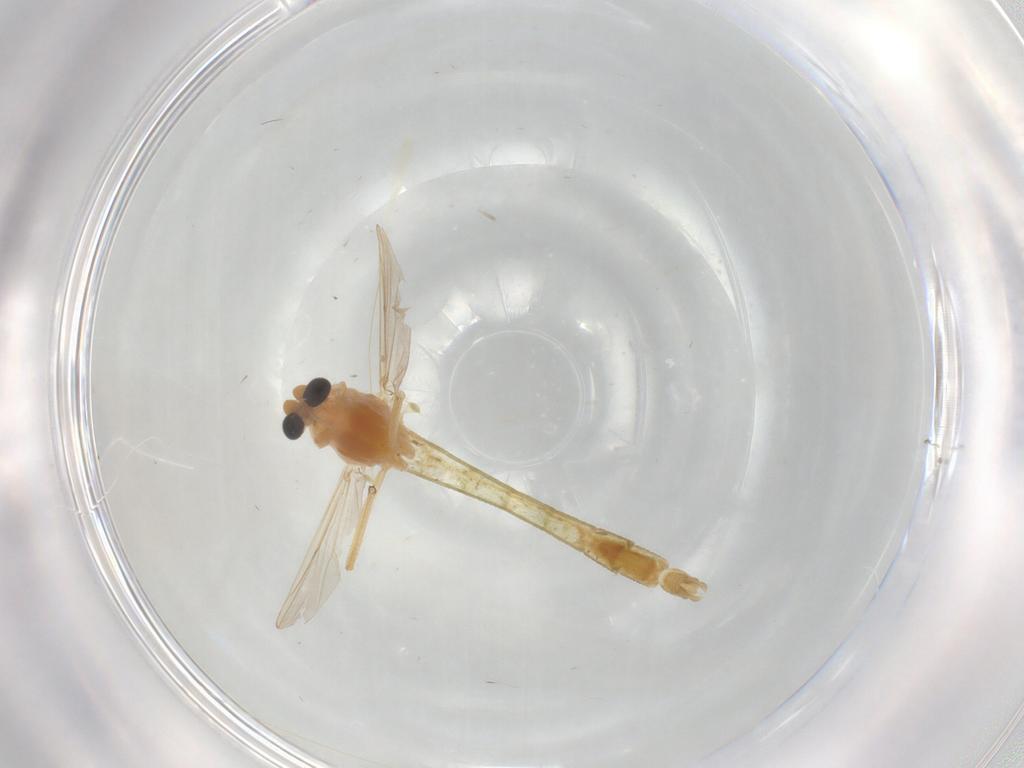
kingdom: Animalia
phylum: Arthropoda
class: Insecta
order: Diptera
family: Chironomidae
